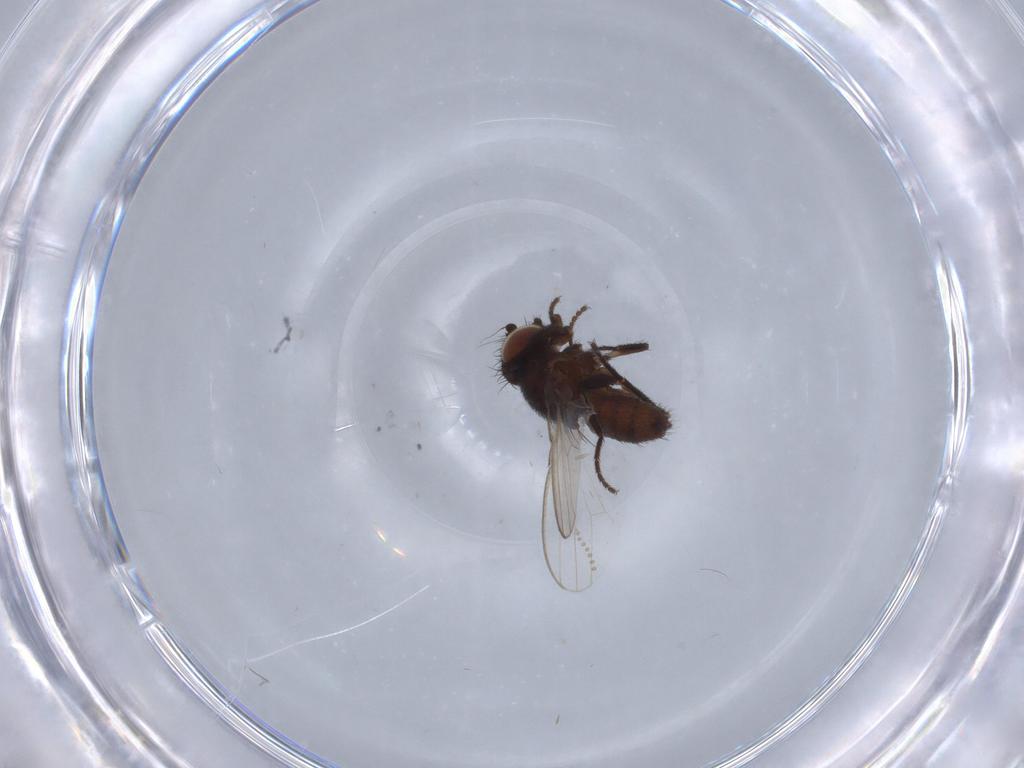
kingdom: Animalia
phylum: Arthropoda
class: Insecta
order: Diptera
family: Milichiidae
